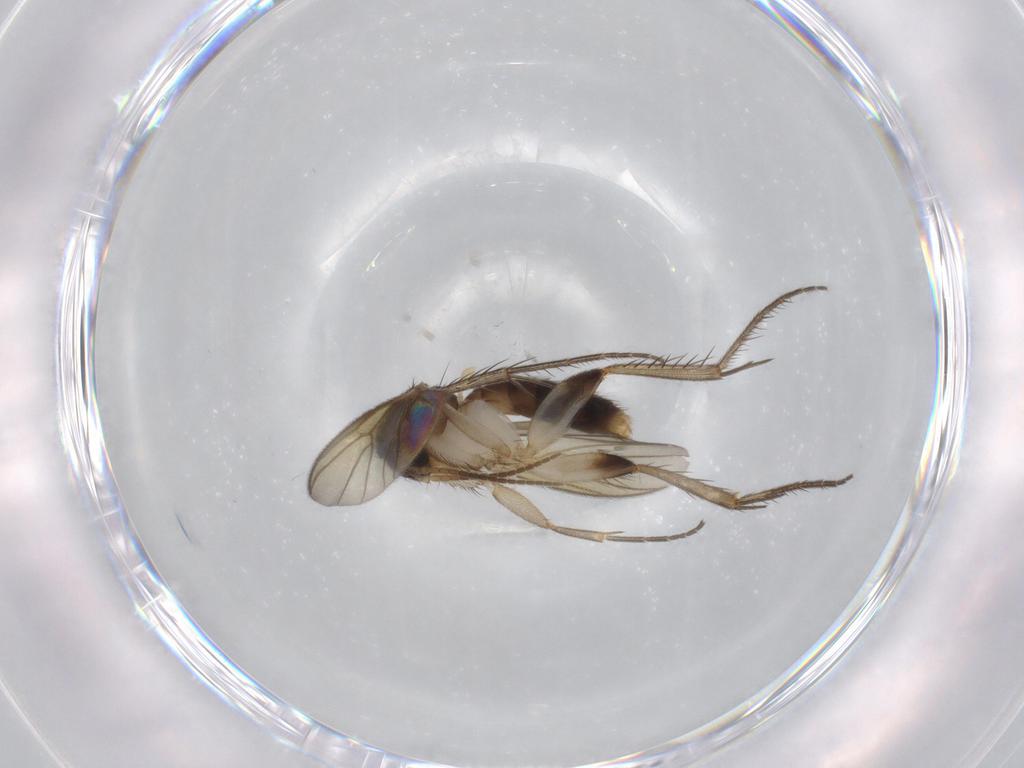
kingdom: Animalia
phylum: Arthropoda
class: Insecta
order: Diptera
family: Mycetophilidae
